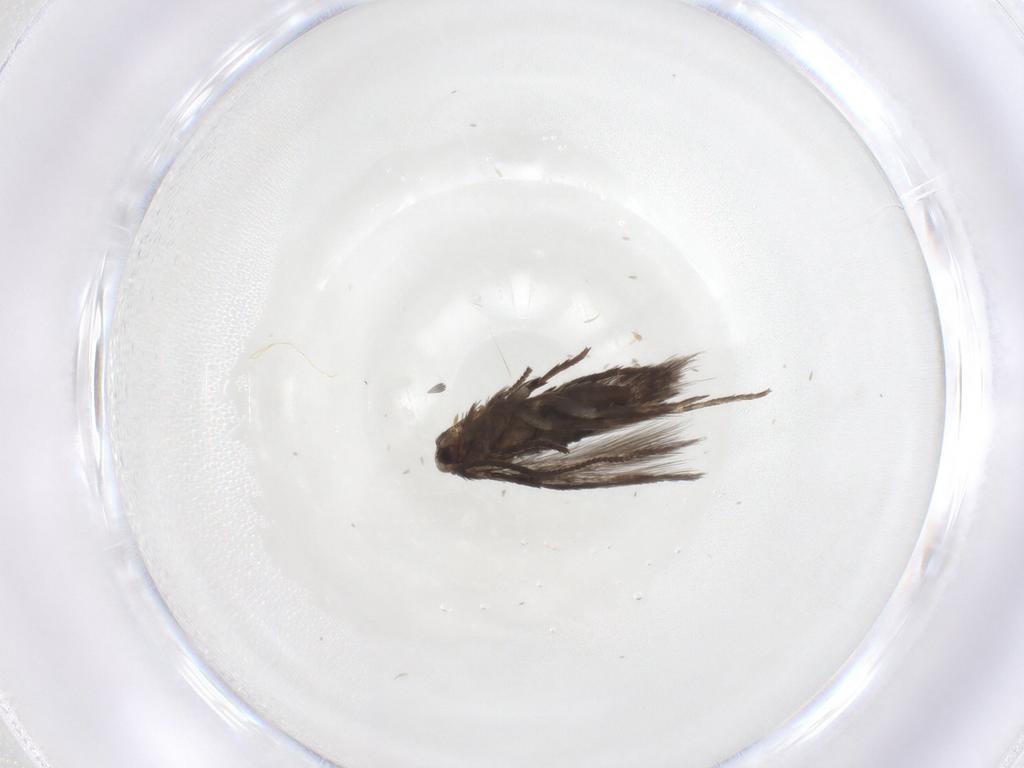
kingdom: Animalia
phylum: Arthropoda
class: Insecta
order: Lepidoptera
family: Nepticulidae
